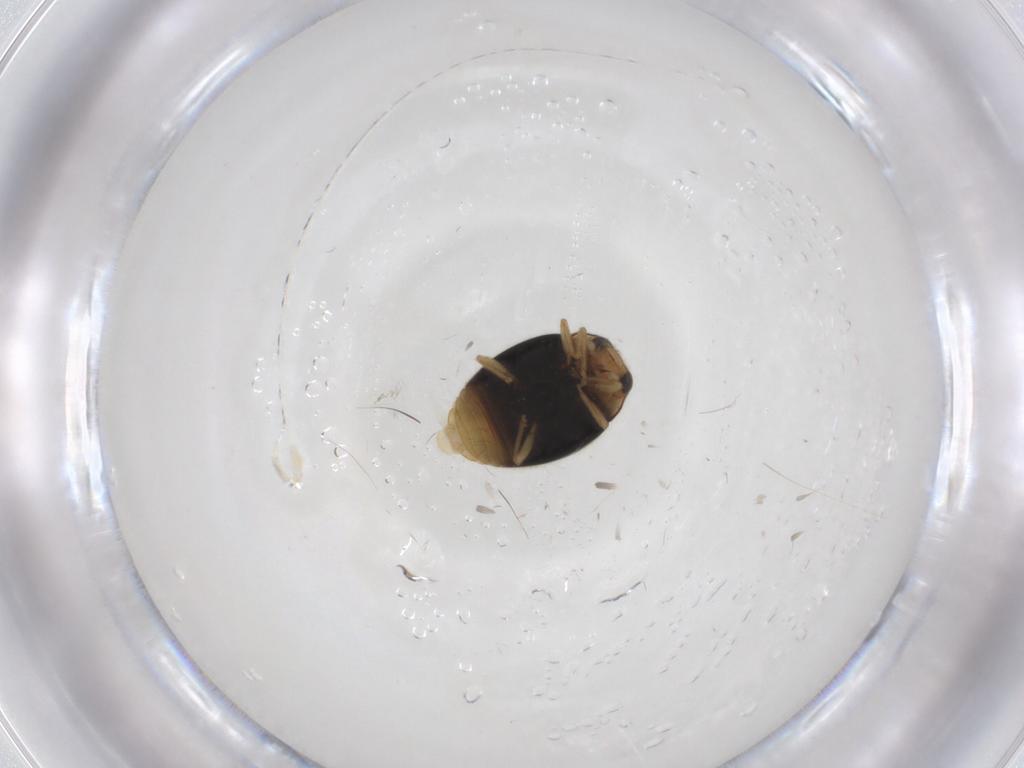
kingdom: Animalia
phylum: Arthropoda
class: Insecta
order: Coleoptera
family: Coccinellidae
